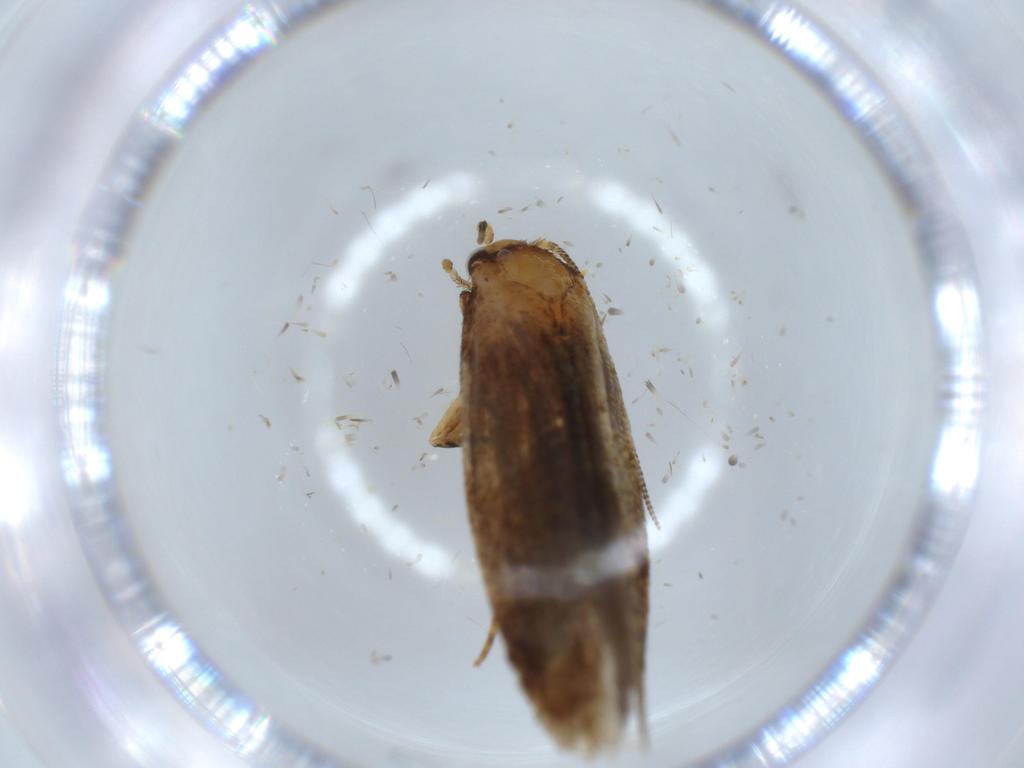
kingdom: Animalia
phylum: Arthropoda
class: Insecta
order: Lepidoptera
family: Tineidae
